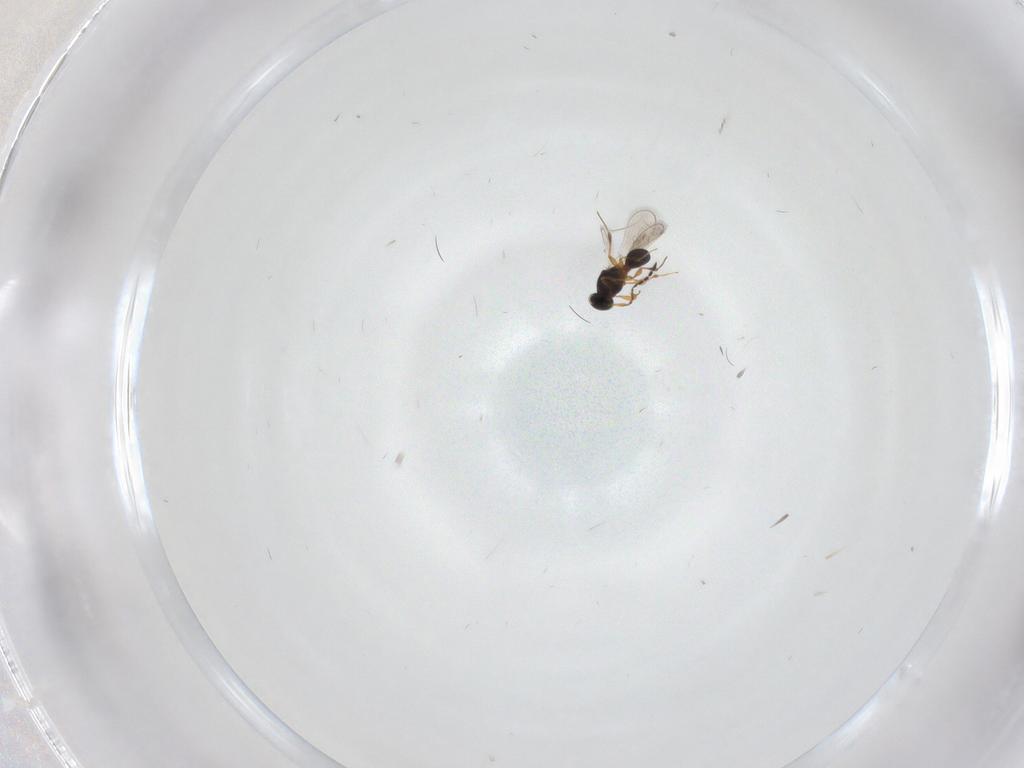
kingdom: Animalia
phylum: Arthropoda
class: Insecta
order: Hymenoptera
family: Platygastridae
